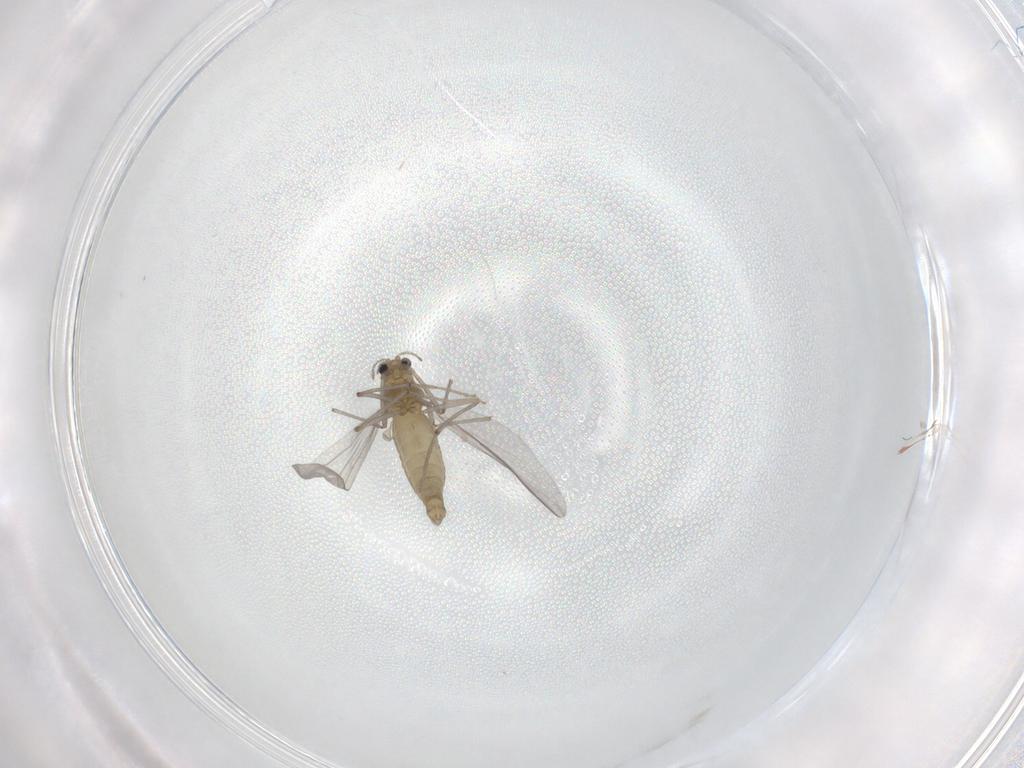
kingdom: Animalia
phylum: Arthropoda
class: Insecta
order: Diptera
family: Chironomidae
